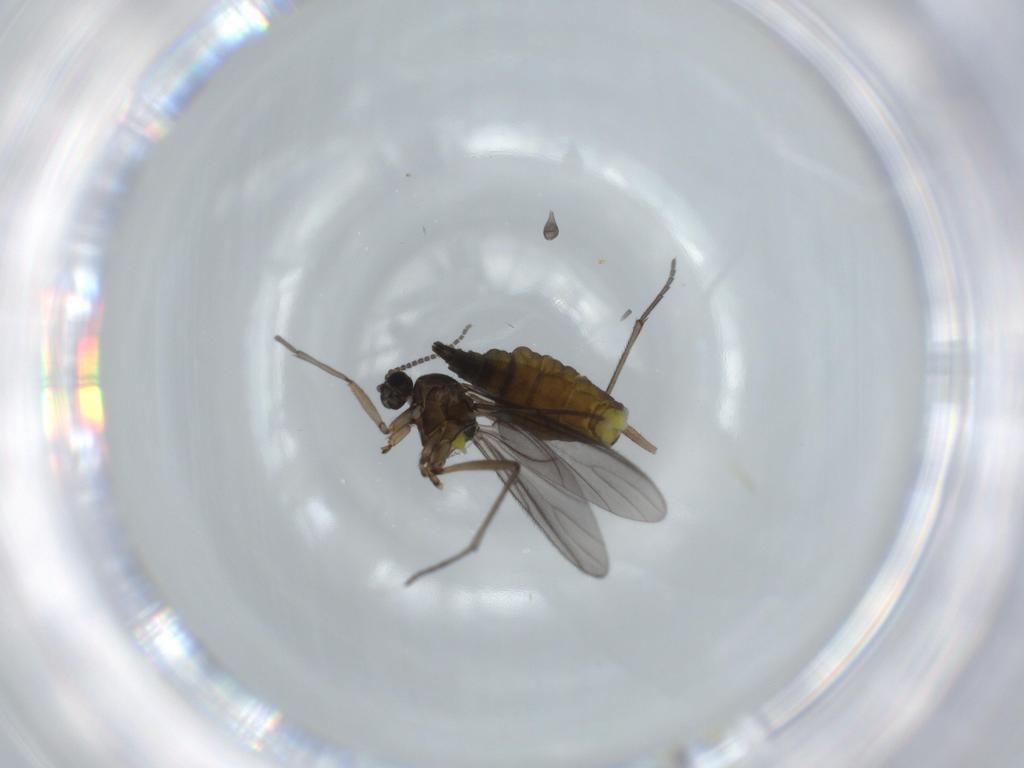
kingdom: Animalia
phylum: Arthropoda
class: Insecta
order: Diptera
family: Sciaridae
